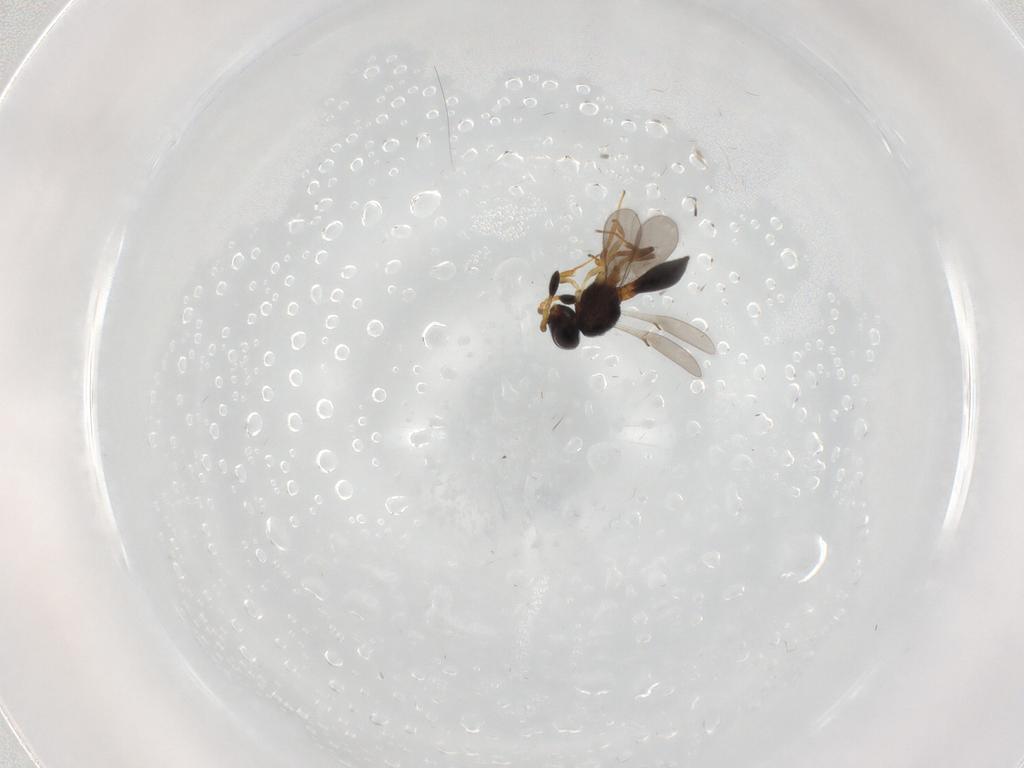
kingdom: Animalia
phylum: Arthropoda
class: Insecta
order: Hymenoptera
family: Scelionidae
